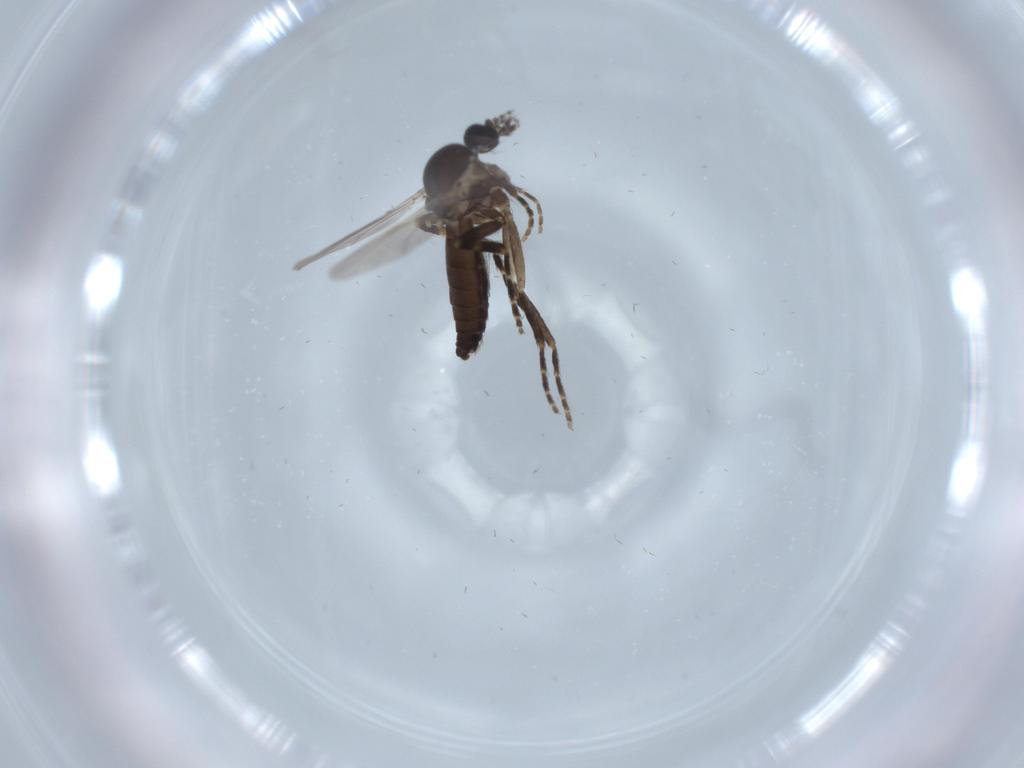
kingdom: Animalia
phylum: Arthropoda
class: Insecta
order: Diptera
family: Ceratopogonidae
